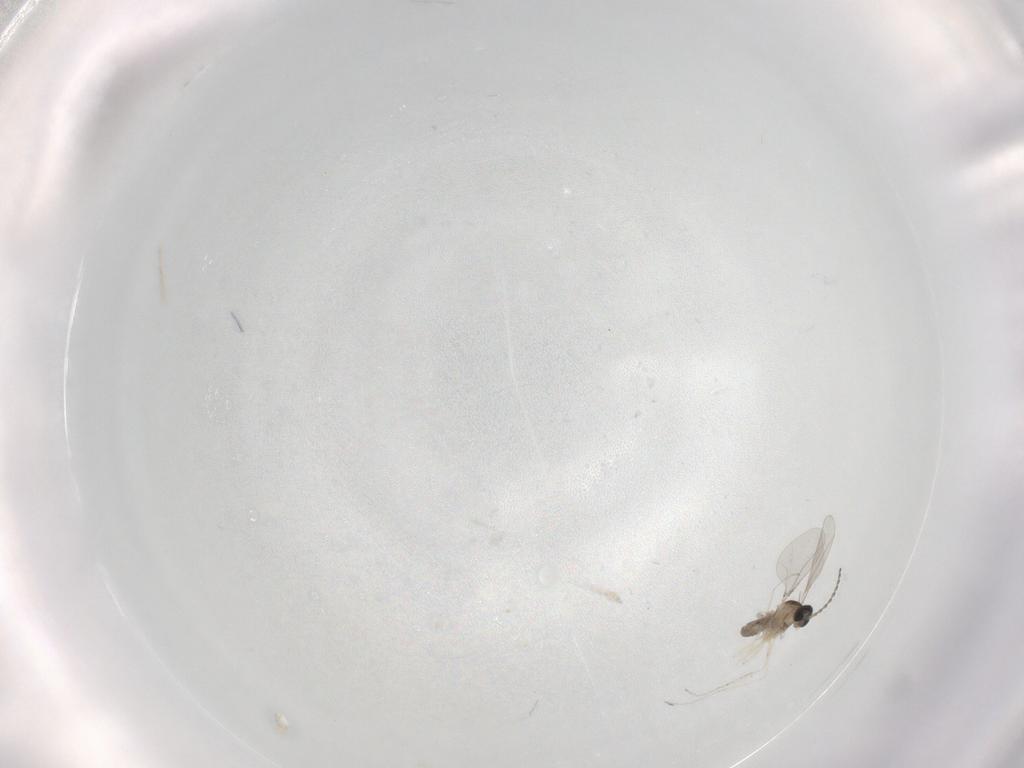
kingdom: Animalia
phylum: Arthropoda
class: Insecta
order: Diptera
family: Cecidomyiidae
